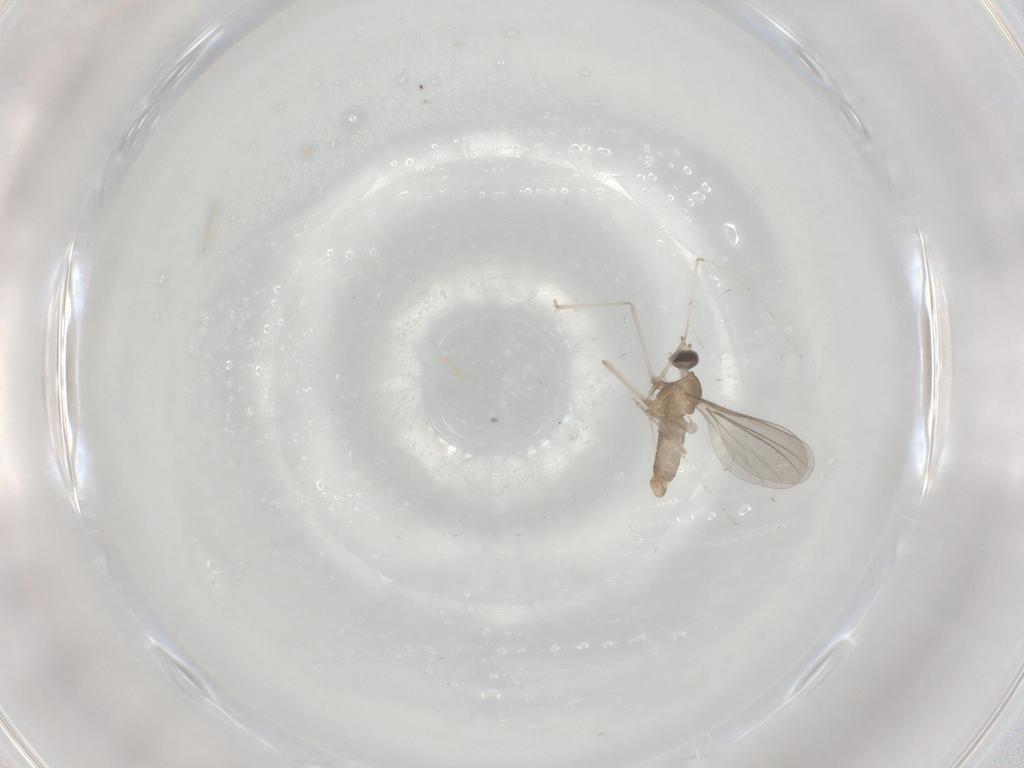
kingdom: Animalia
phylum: Arthropoda
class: Insecta
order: Diptera
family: Cecidomyiidae
